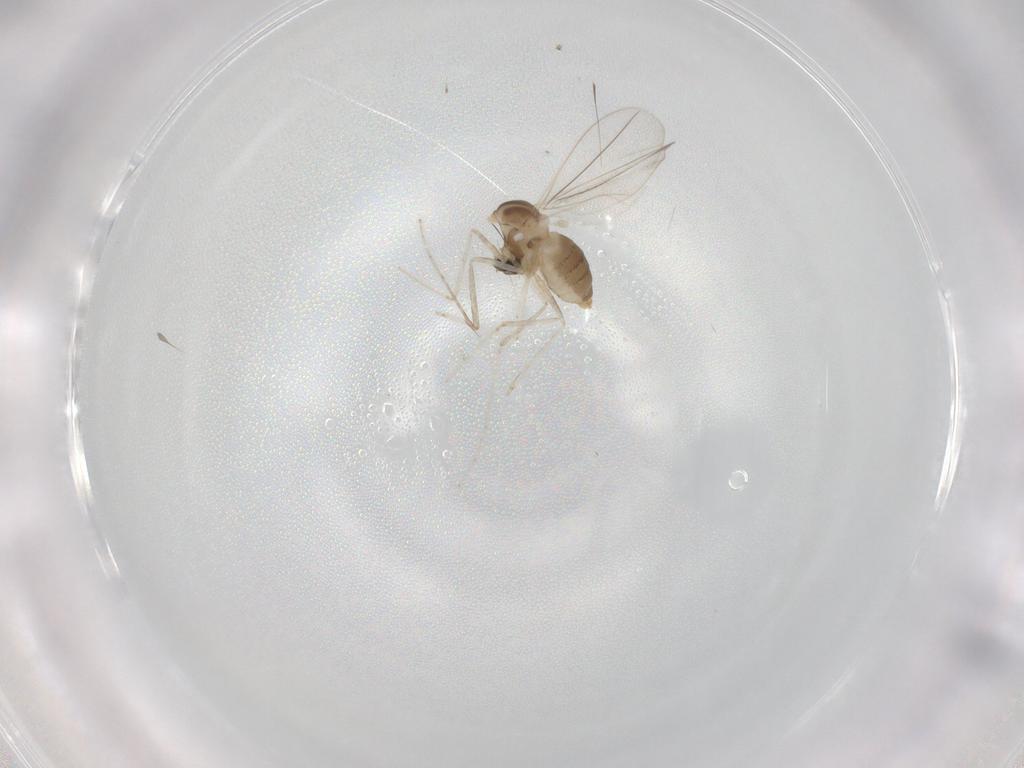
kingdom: Animalia
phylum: Arthropoda
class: Insecta
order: Diptera
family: Cecidomyiidae
